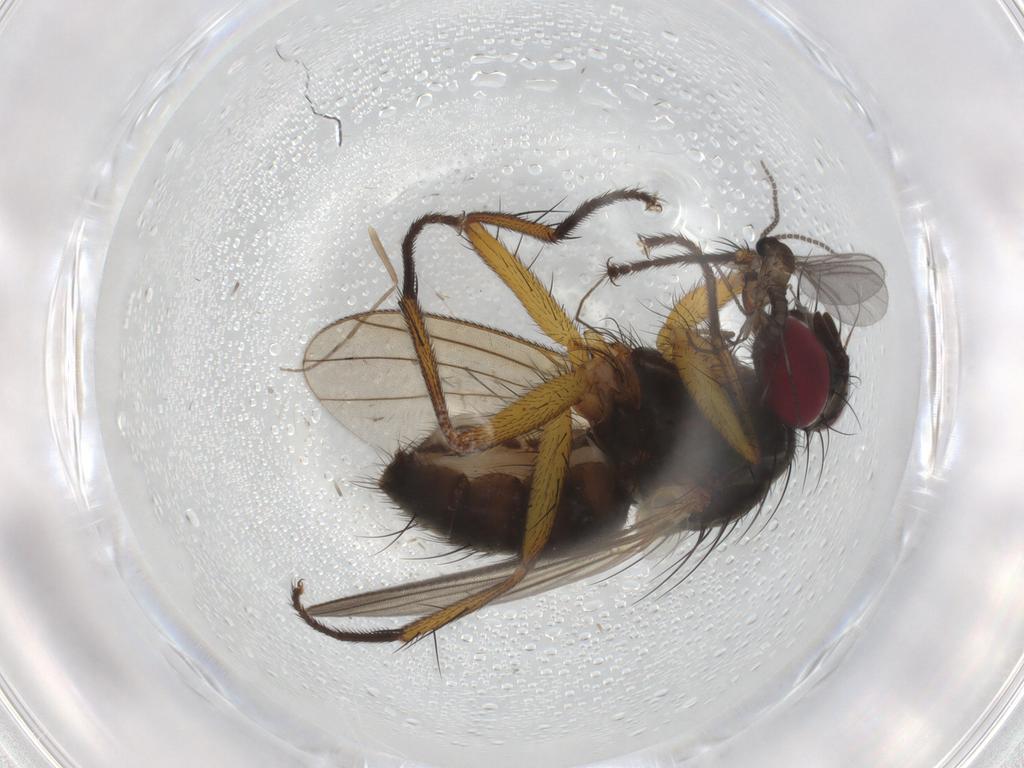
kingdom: Animalia
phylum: Arthropoda
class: Insecta
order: Diptera
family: Muscidae
